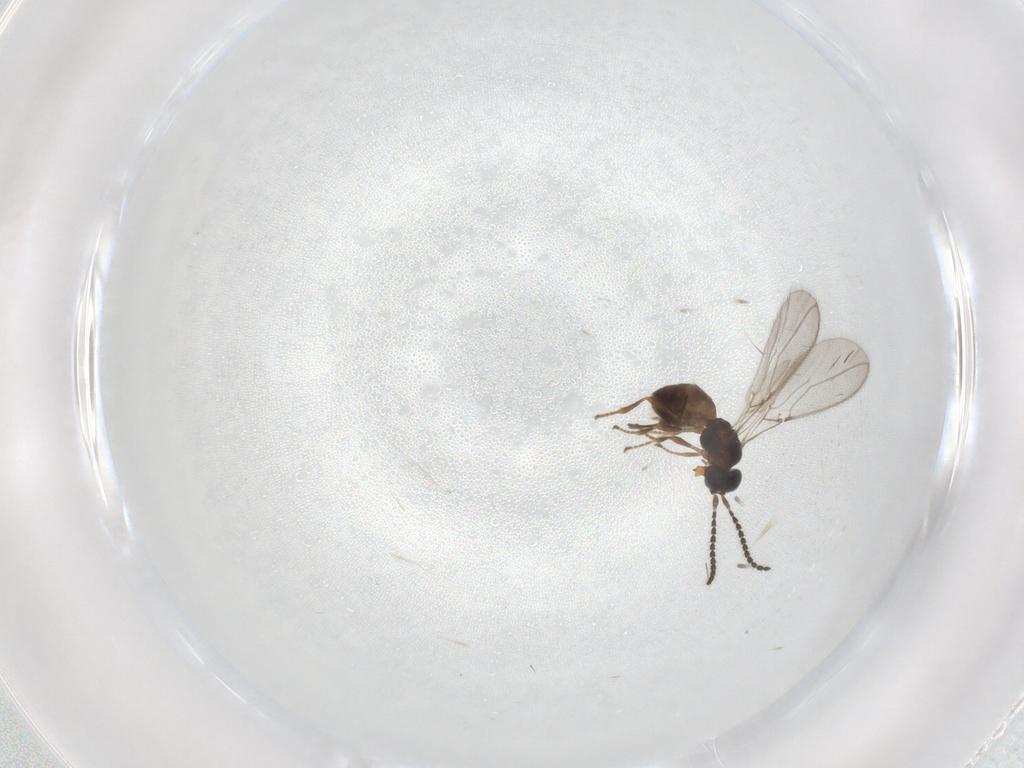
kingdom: Animalia
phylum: Arthropoda
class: Insecta
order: Hymenoptera
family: Braconidae
